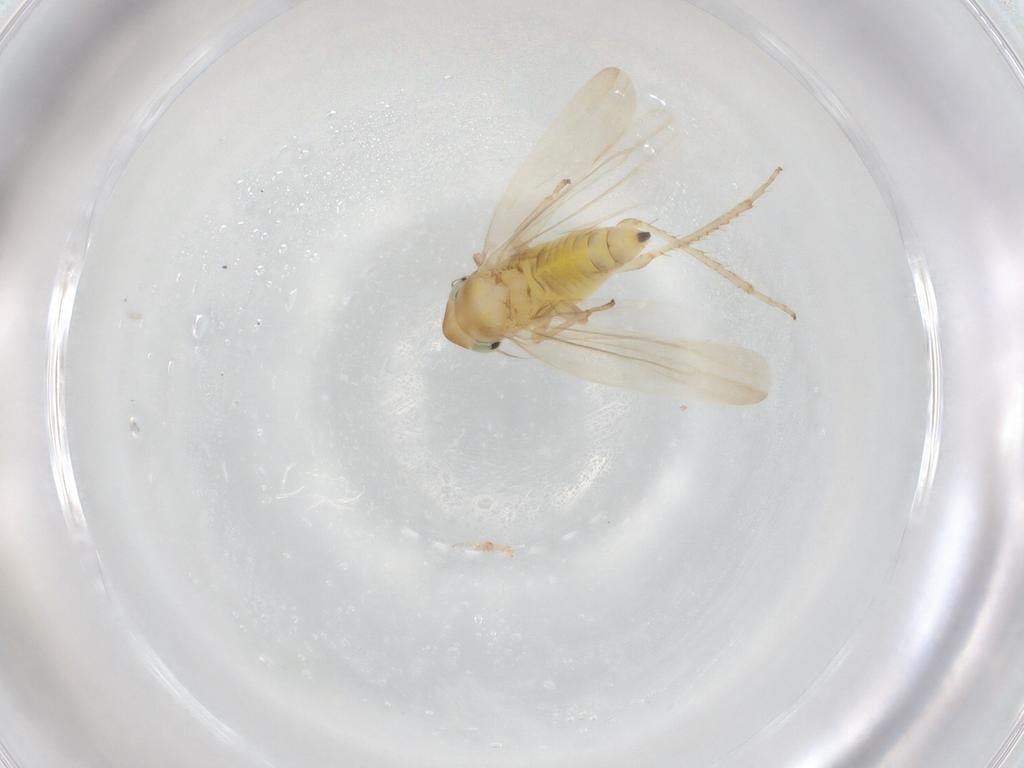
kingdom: Animalia
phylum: Arthropoda
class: Insecta
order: Hemiptera
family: Cicadellidae
